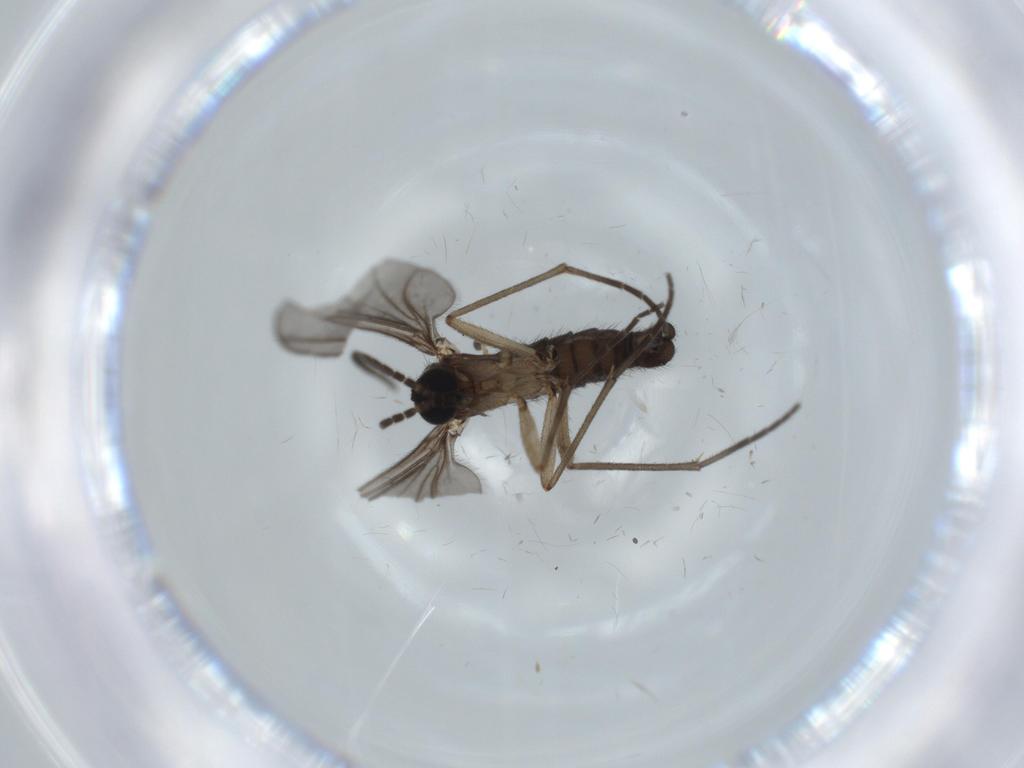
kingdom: Animalia
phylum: Arthropoda
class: Insecta
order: Diptera
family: Sciaridae
